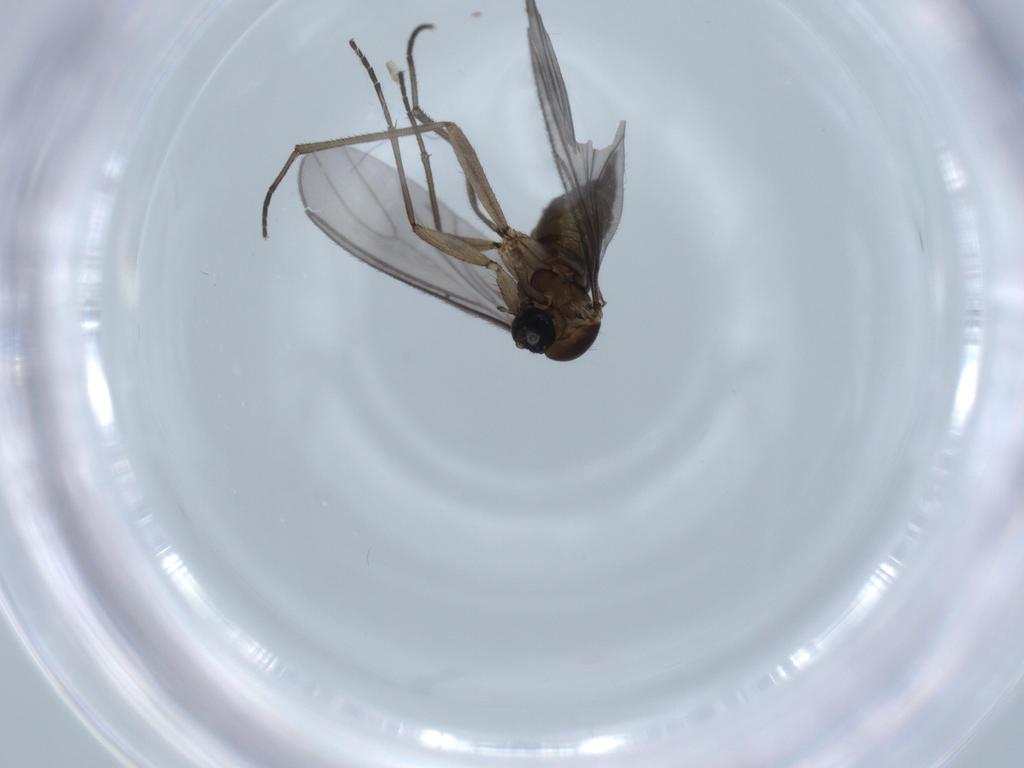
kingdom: Animalia
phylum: Arthropoda
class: Insecta
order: Diptera
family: Sciaridae
